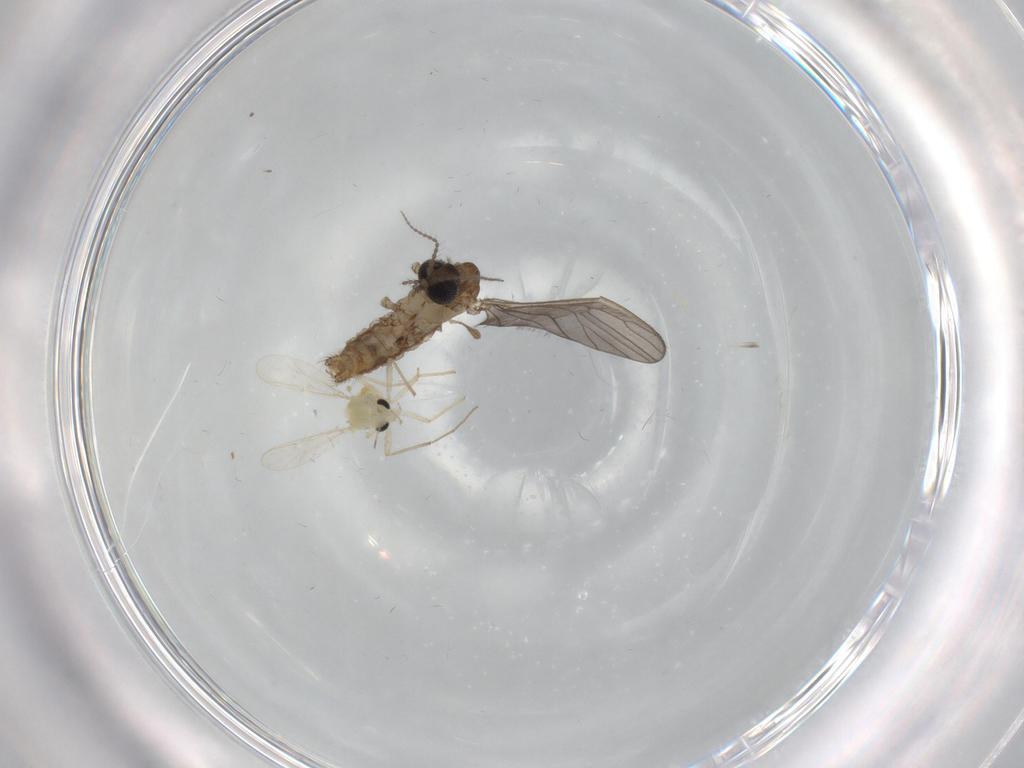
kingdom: Animalia
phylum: Arthropoda
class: Insecta
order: Diptera
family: Limoniidae
